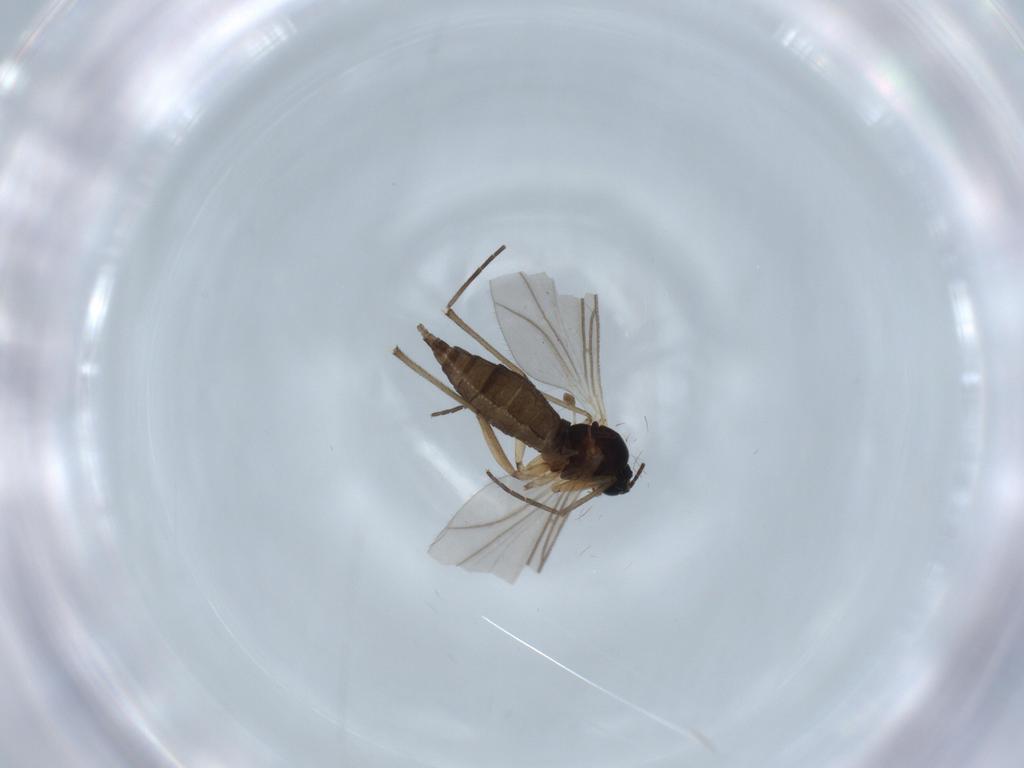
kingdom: Animalia
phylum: Arthropoda
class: Insecta
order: Diptera
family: Sciaridae
